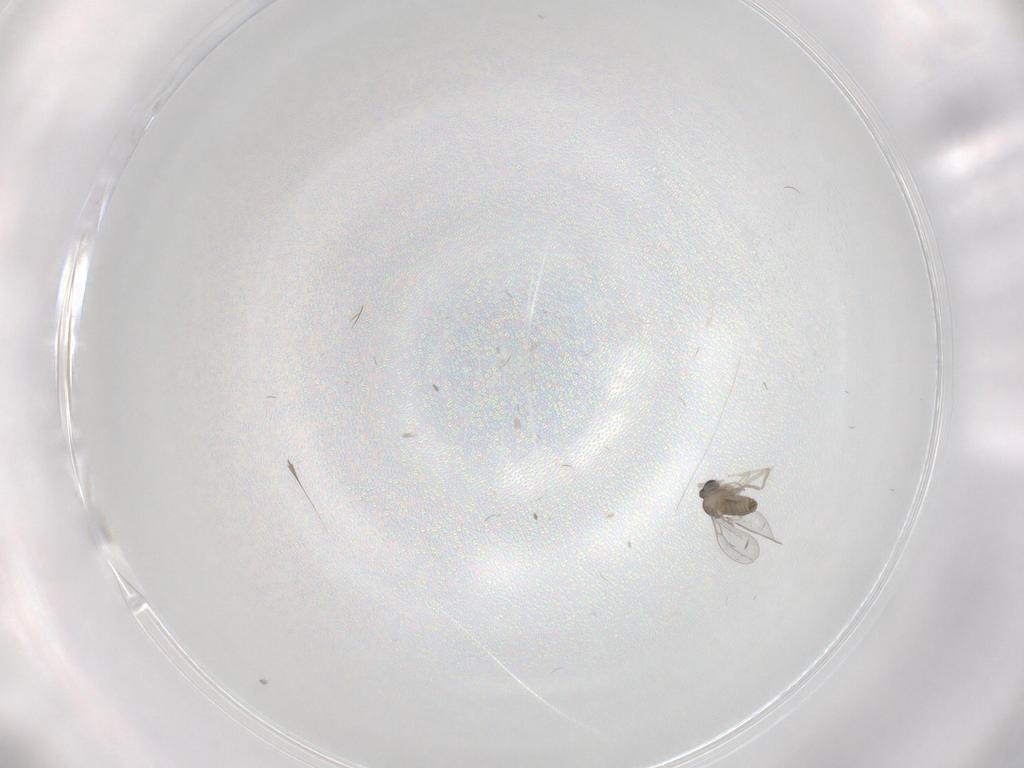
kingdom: Animalia
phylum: Arthropoda
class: Insecta
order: Diptera
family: Cecidomyiidae
